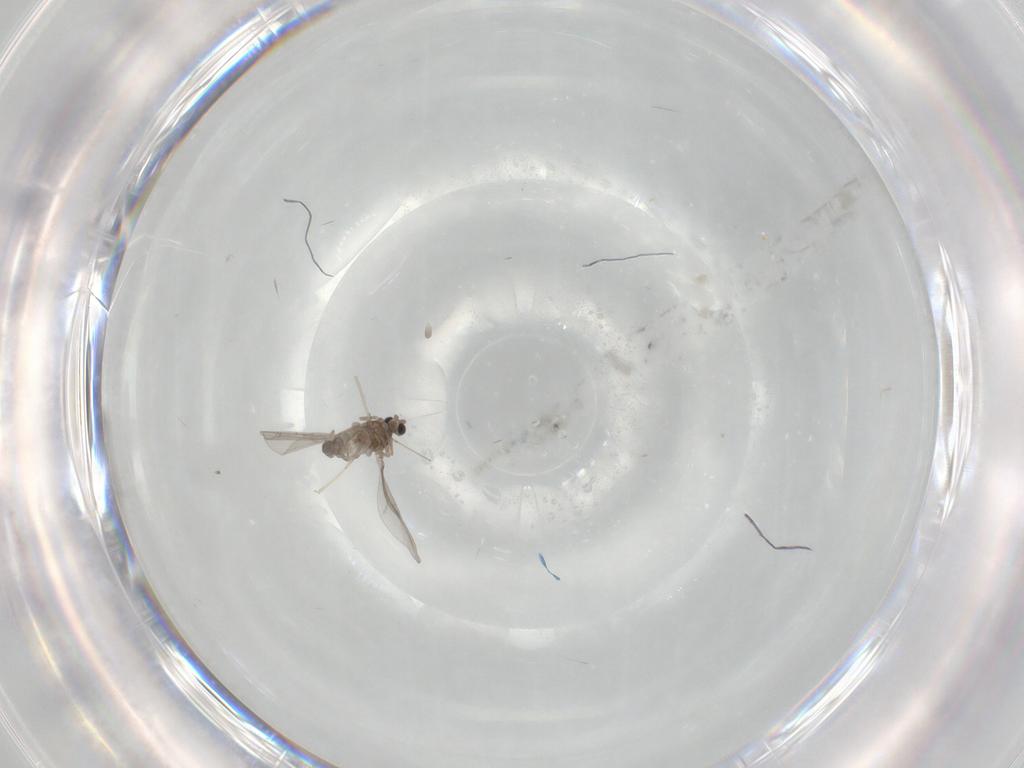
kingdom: Animalia
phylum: Arthropoda
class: Insecta
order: Diptera
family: Cecidomyiidae
